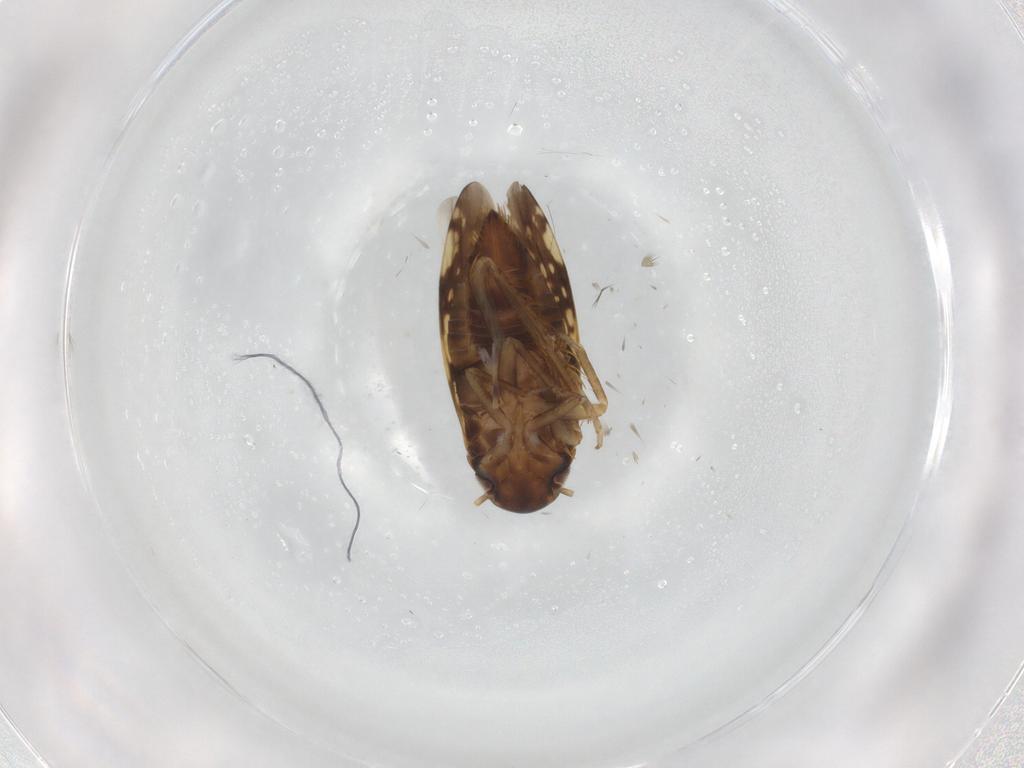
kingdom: Animalia
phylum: Arthropoda
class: Insecta
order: Hemiptera
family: Cicadellidae
